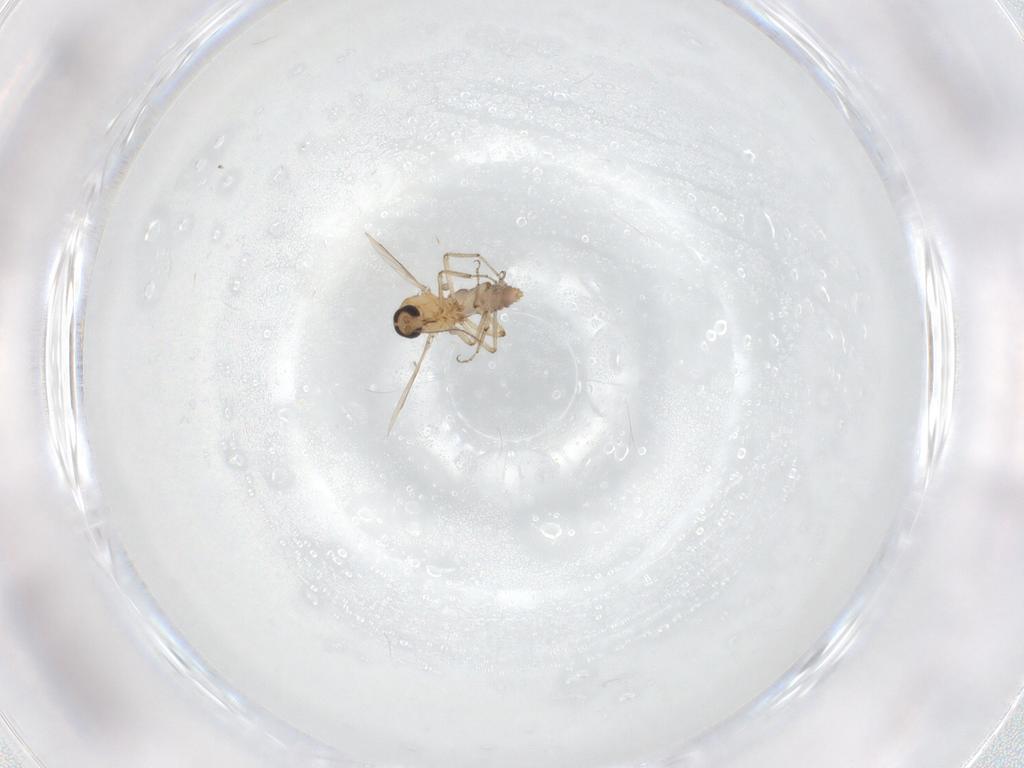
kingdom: Animalia
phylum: Arthropoda
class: Insecta
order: Diptera
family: Ceratopogonidae
